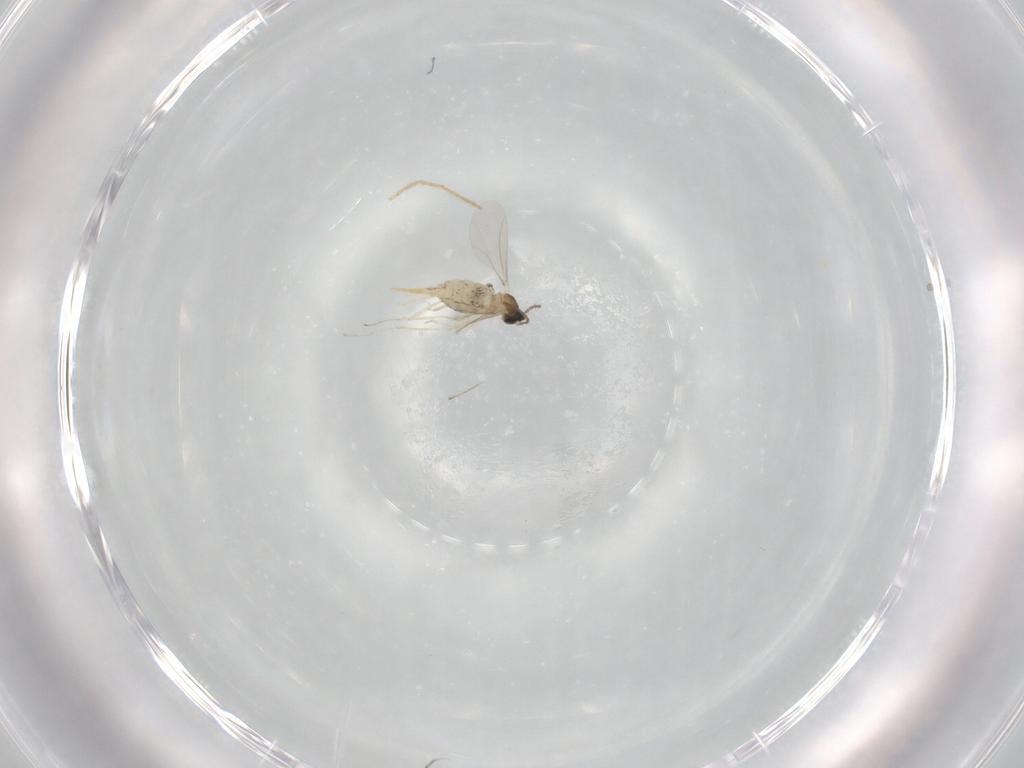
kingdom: Animalia
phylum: Arthropoda
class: Insecta
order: Diptera
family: Cecidomyiidae
